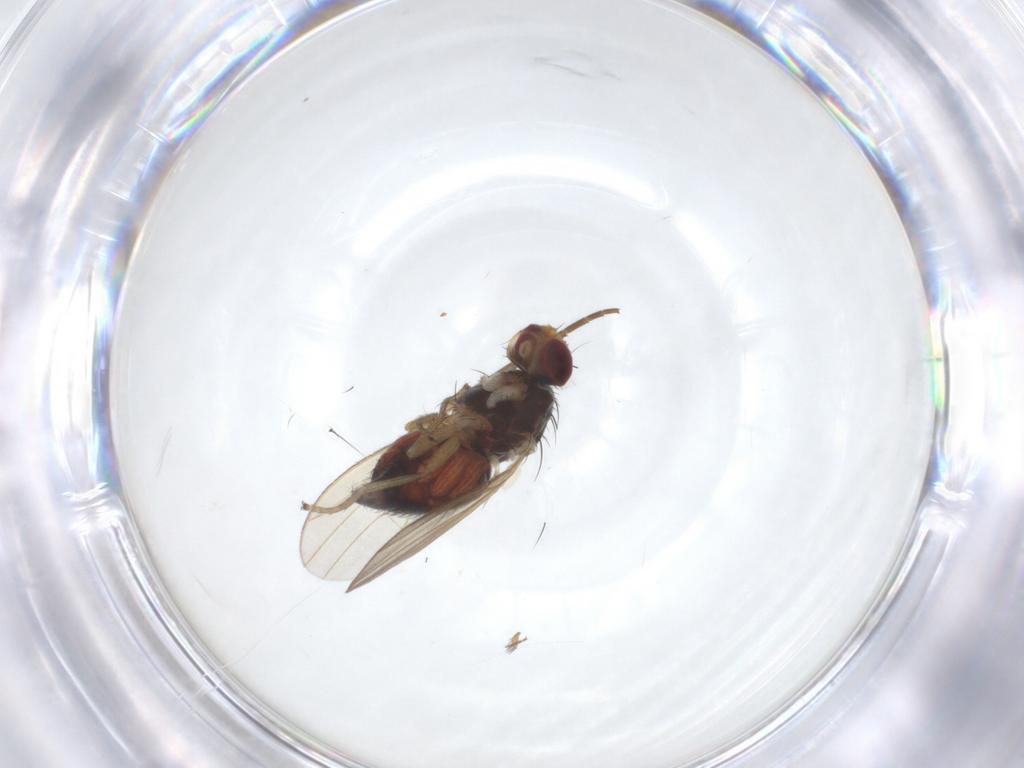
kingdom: Animalia
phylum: Arthropoda
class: Insecta
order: Diptera
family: Heleomyzidae
